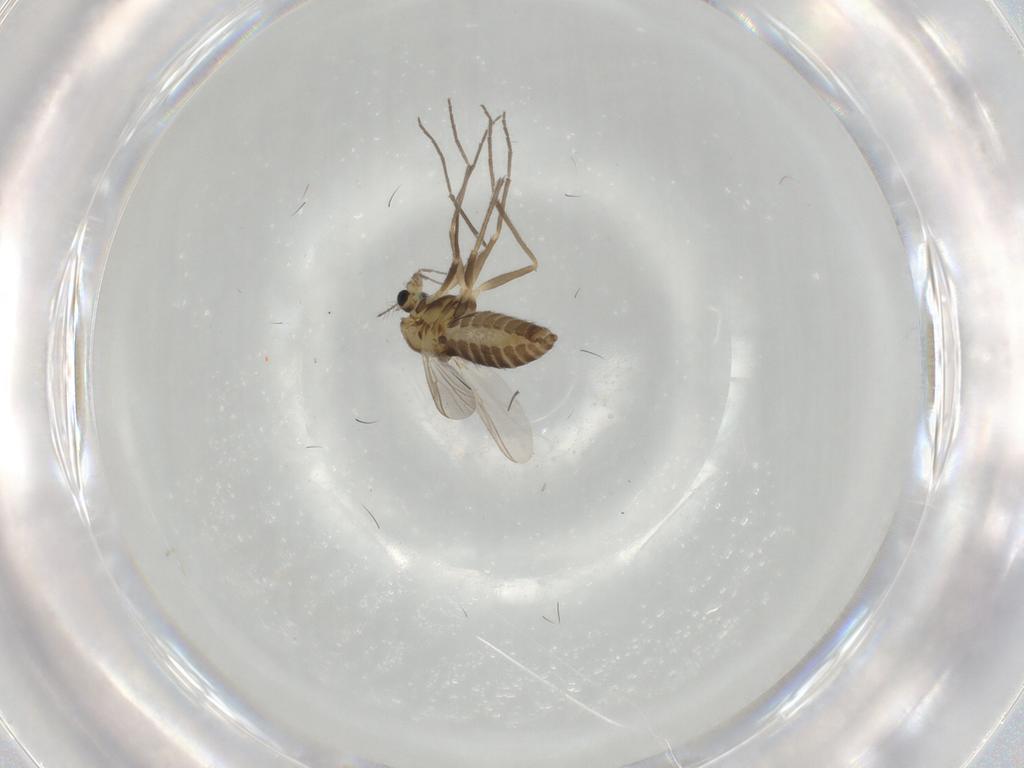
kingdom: Animalia
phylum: Arthropoda
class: Insecta
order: Diptera
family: Chironomidae
